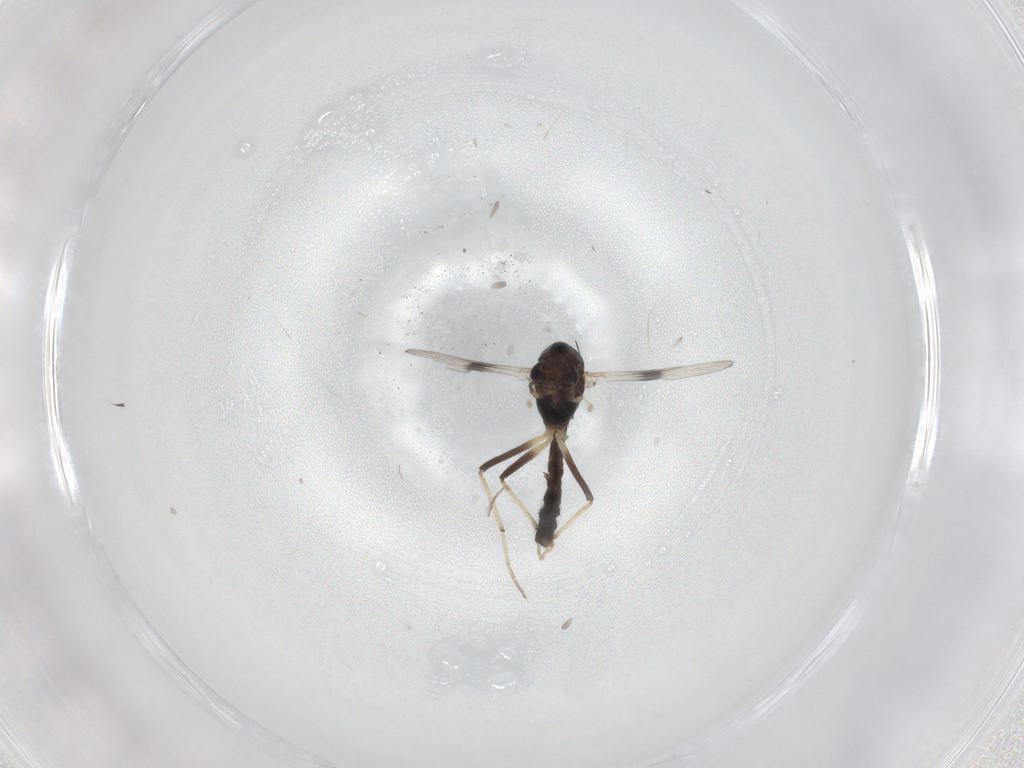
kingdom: Animalia
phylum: Arthropoda
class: Insecta
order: Diptera
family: Chironomidae
